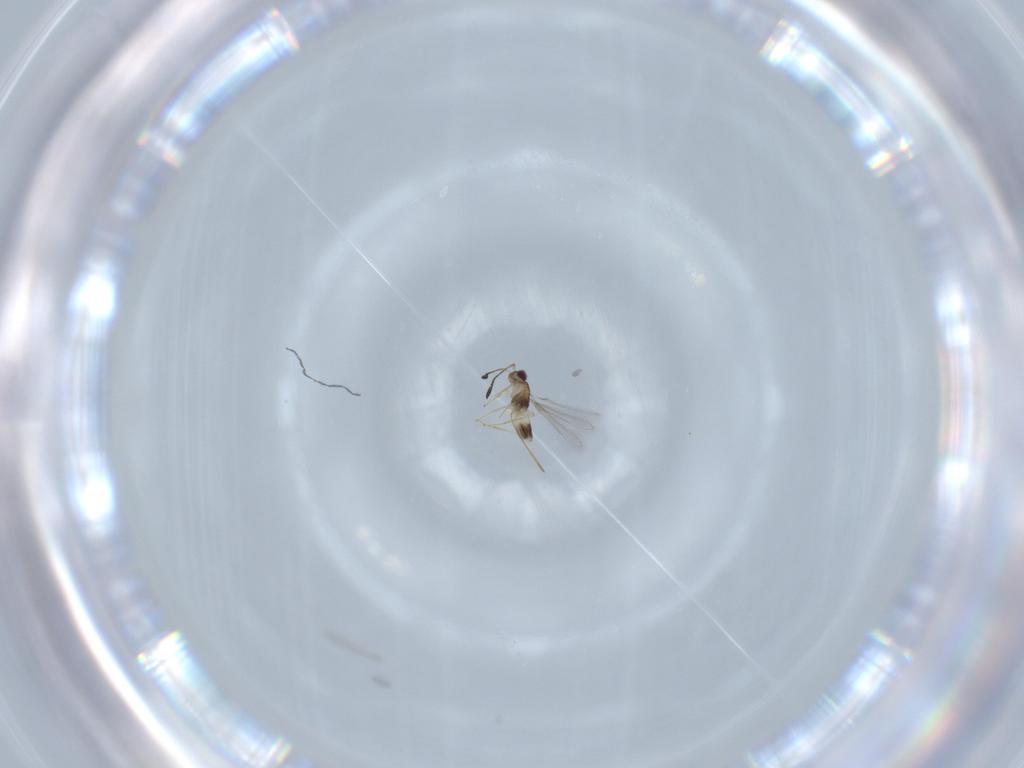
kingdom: Animalia
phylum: Arthropoda
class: Insecta
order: Hymenoptera
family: Mymaridae
